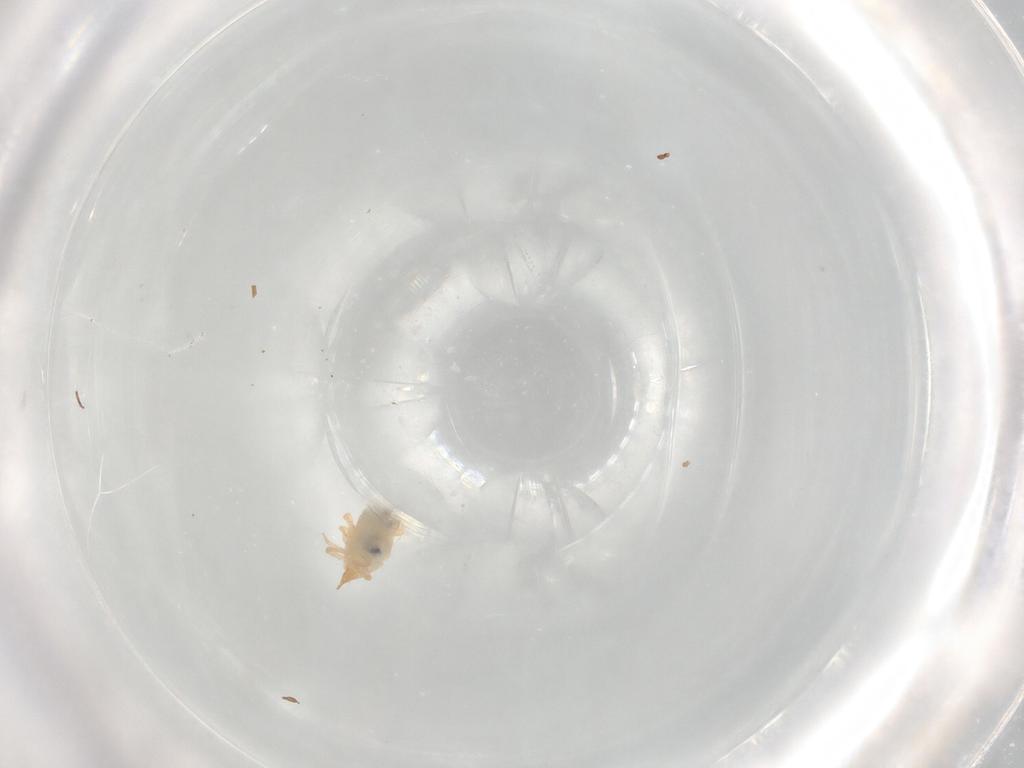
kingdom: Animalia
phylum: Arthropoda
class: Arachnida
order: Trombidiformes
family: Bdellidae
